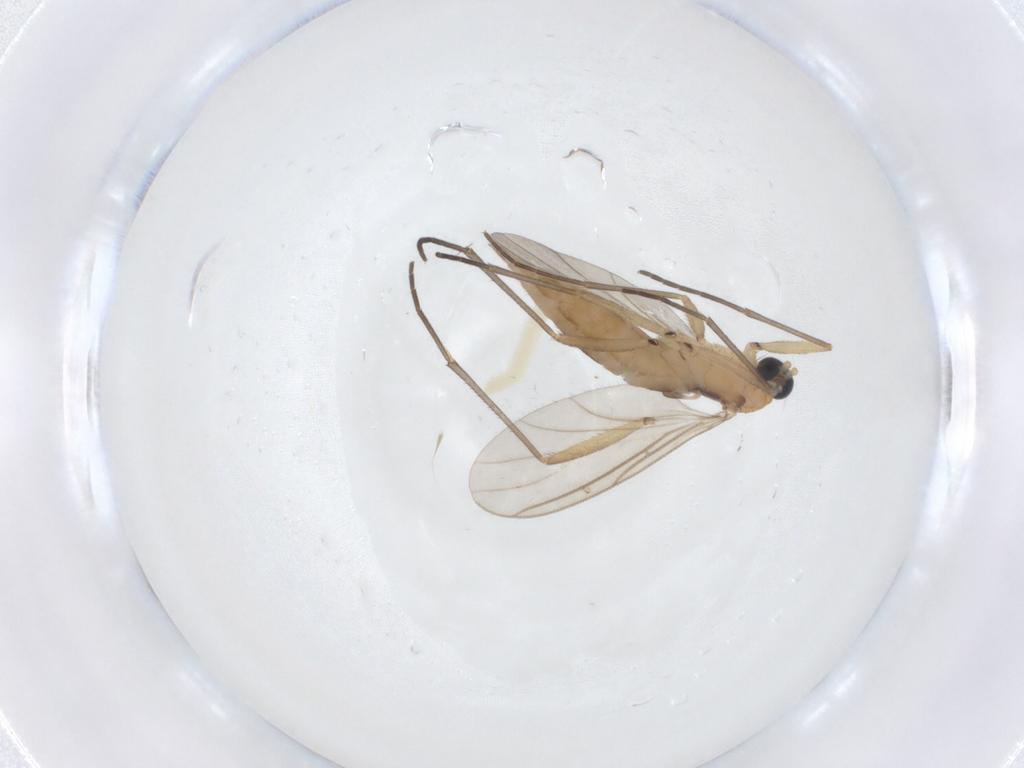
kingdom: Animalia
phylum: Arthropoda
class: Insecta
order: Diptera
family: Sciaridae
